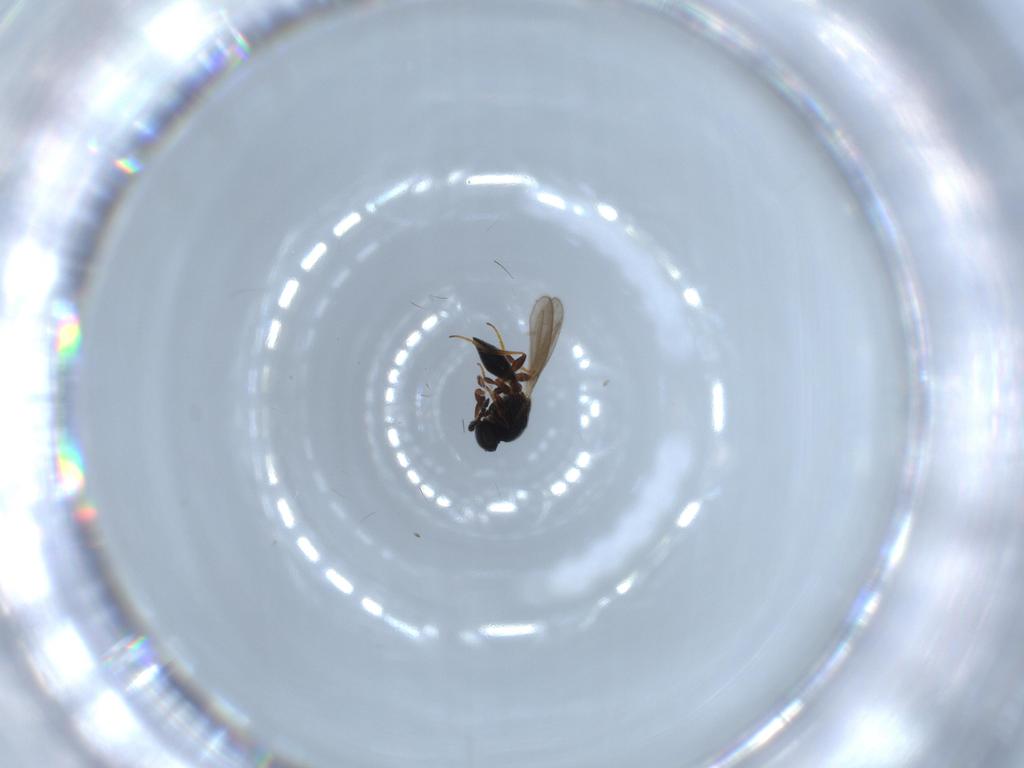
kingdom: Animalia
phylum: Arthropoda
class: Insecta
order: Hymenoptera
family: Platygastridae
